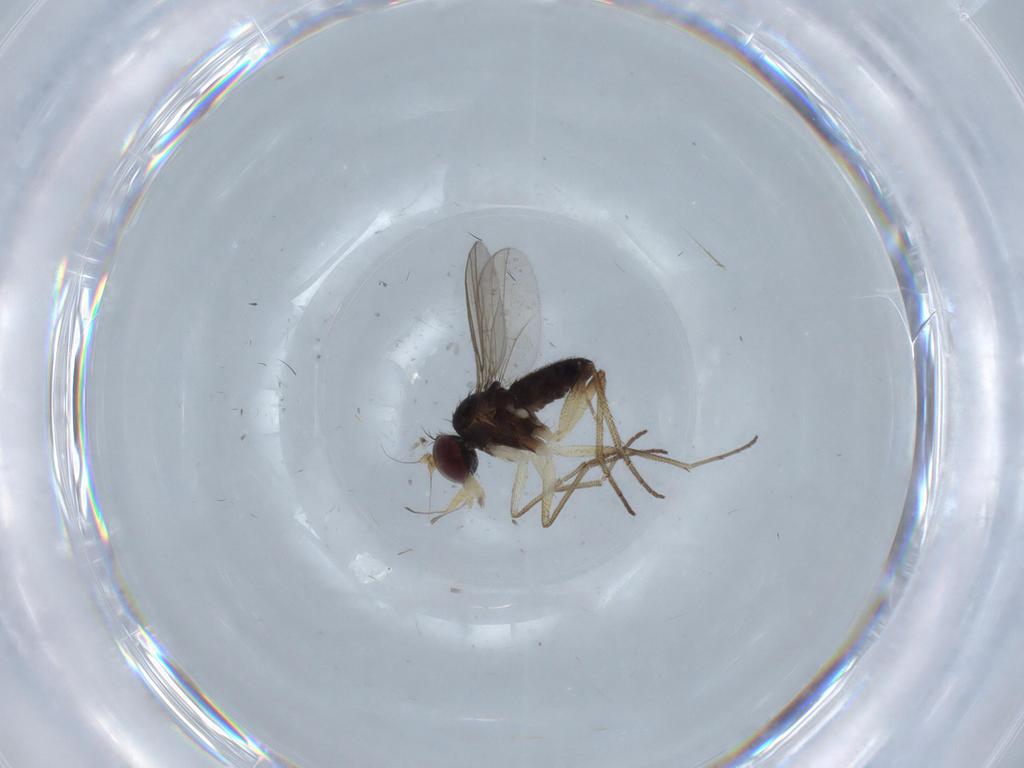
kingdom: Animalia
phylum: Arthropoda
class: Insecta
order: Diptera
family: Dolichopodidae
